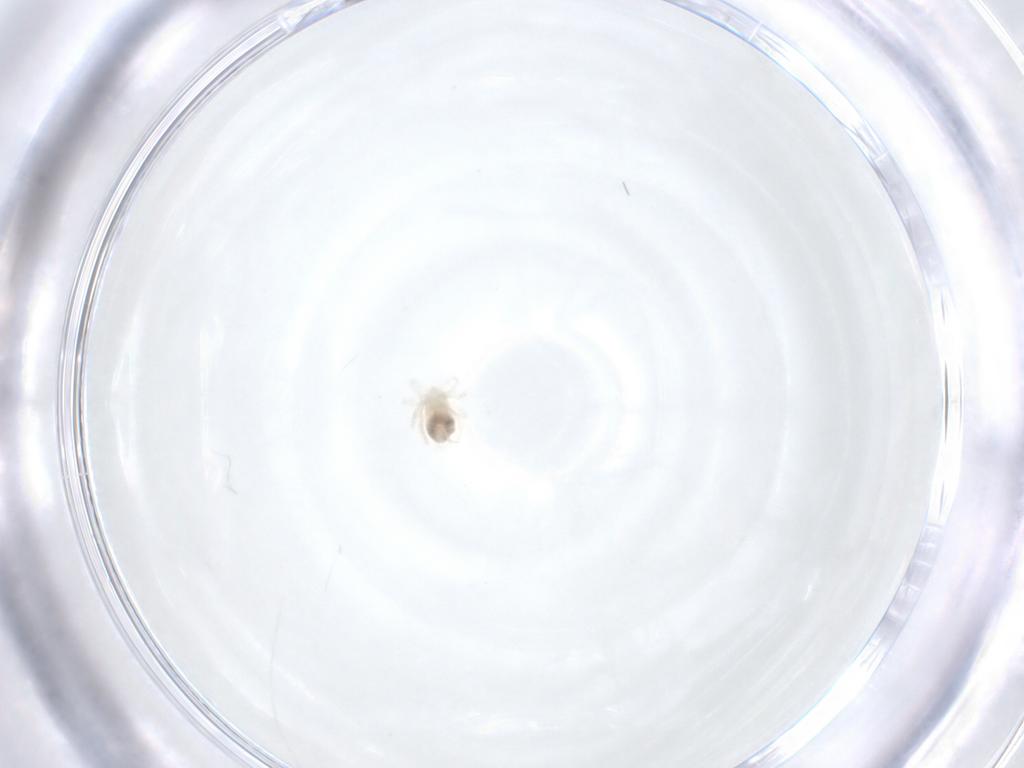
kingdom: Animalia
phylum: Arthropoda
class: Arachnida
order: Trombidiformes
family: Anystidae
